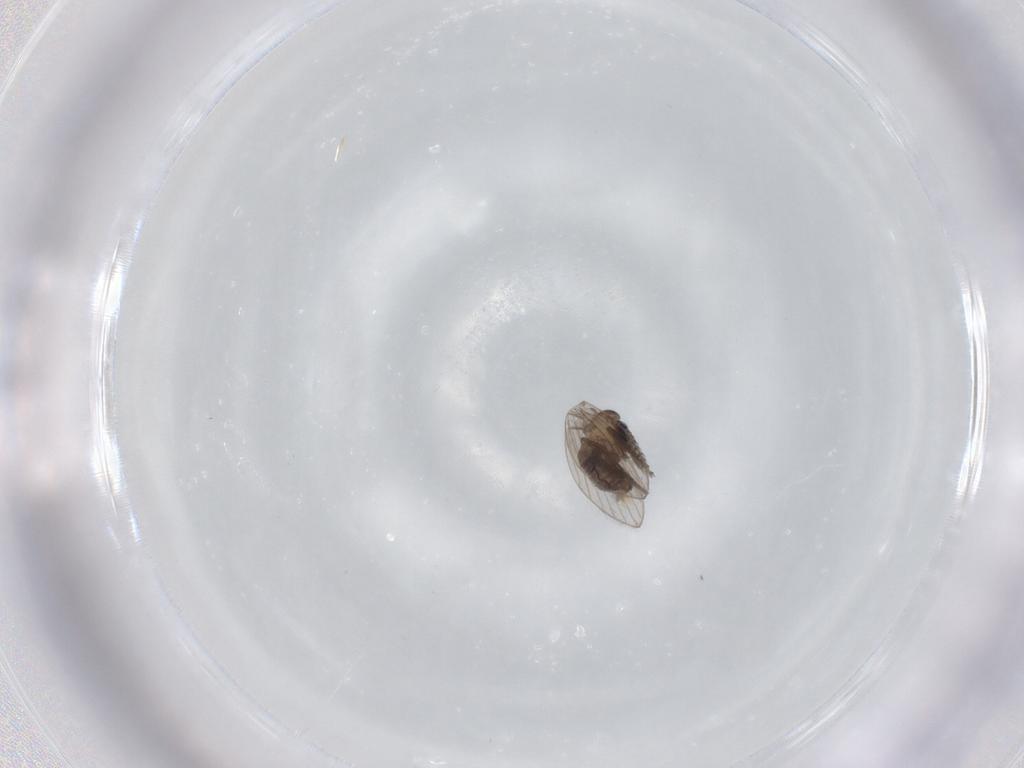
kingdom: Animalia
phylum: Arthropoda
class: Insecta
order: Diptera
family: Psychodidae
